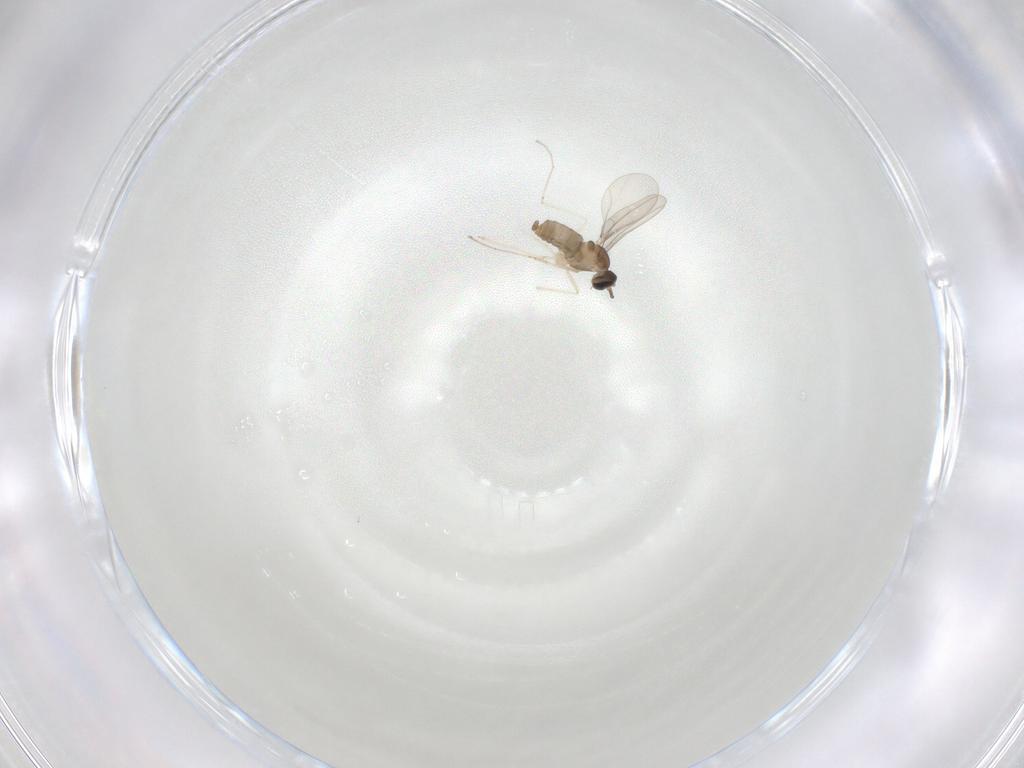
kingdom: Animalia
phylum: Arthropoda
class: Insecta
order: Diptera
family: Cecidomyiidae
